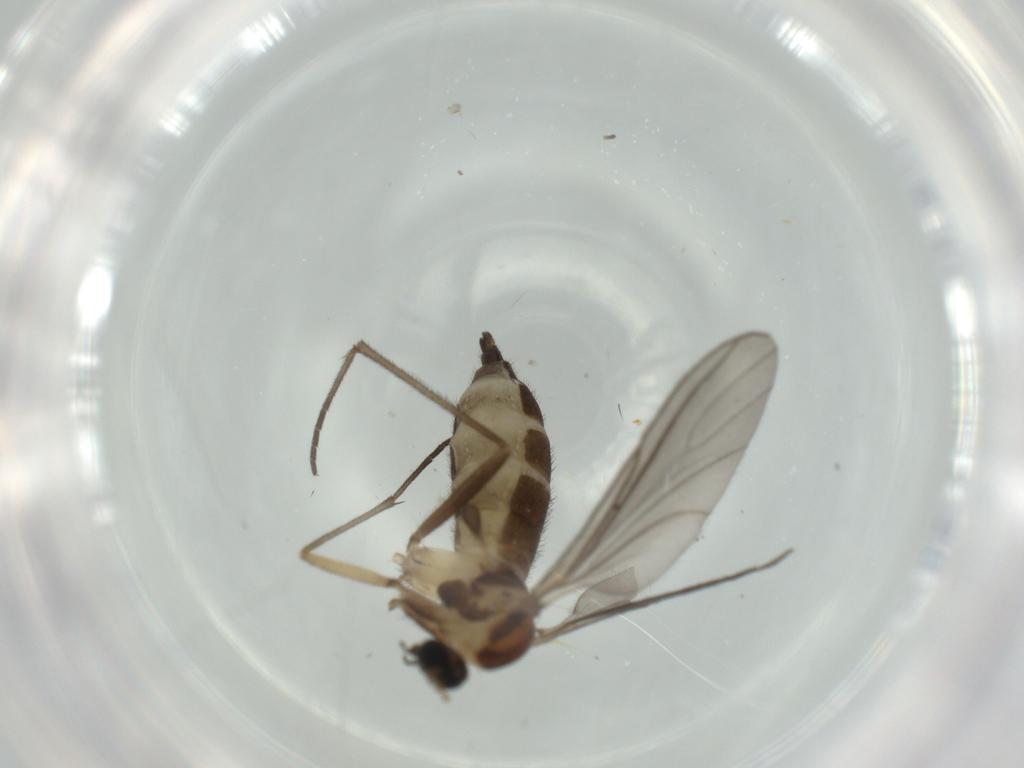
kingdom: Animalia
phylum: Arthropoda
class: Insecta
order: Diptera
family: Sciaridae
